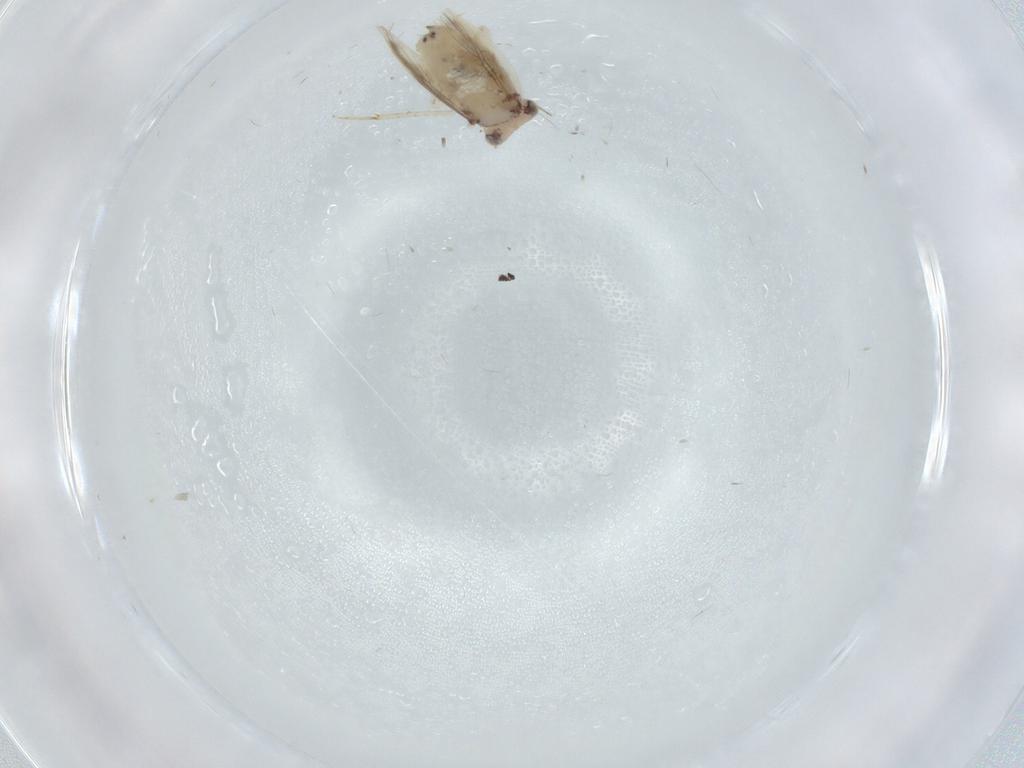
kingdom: Animalia
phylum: Arthropoda
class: Insecta
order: Psocodea
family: Lepidopsocidae
